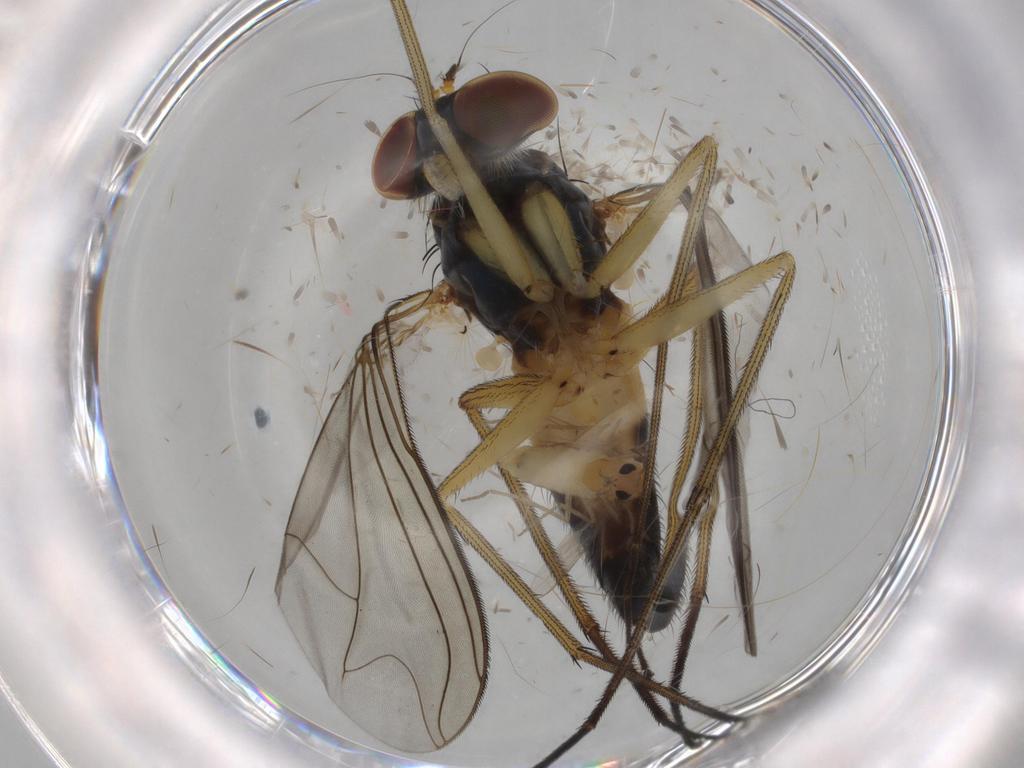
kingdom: Animalia
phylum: Arthropoda
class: Insecta
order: Diptera
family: Dolichopodidae
